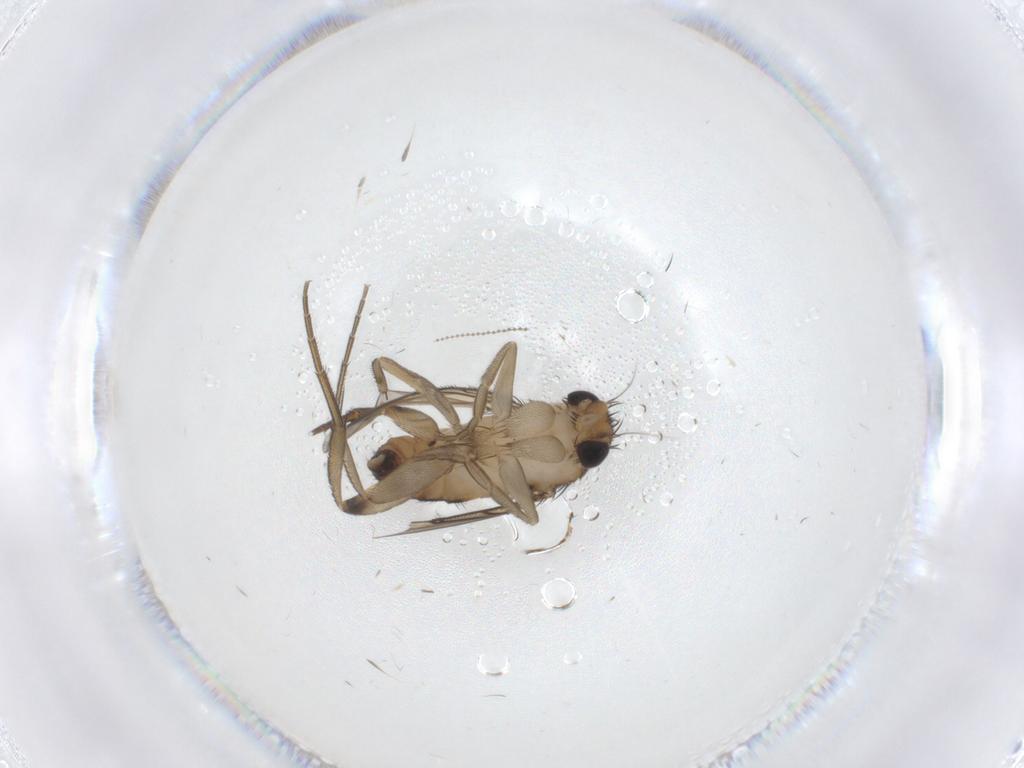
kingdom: Animalia
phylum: Arthropoda
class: Insecta
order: Diptera
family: Phoridae
